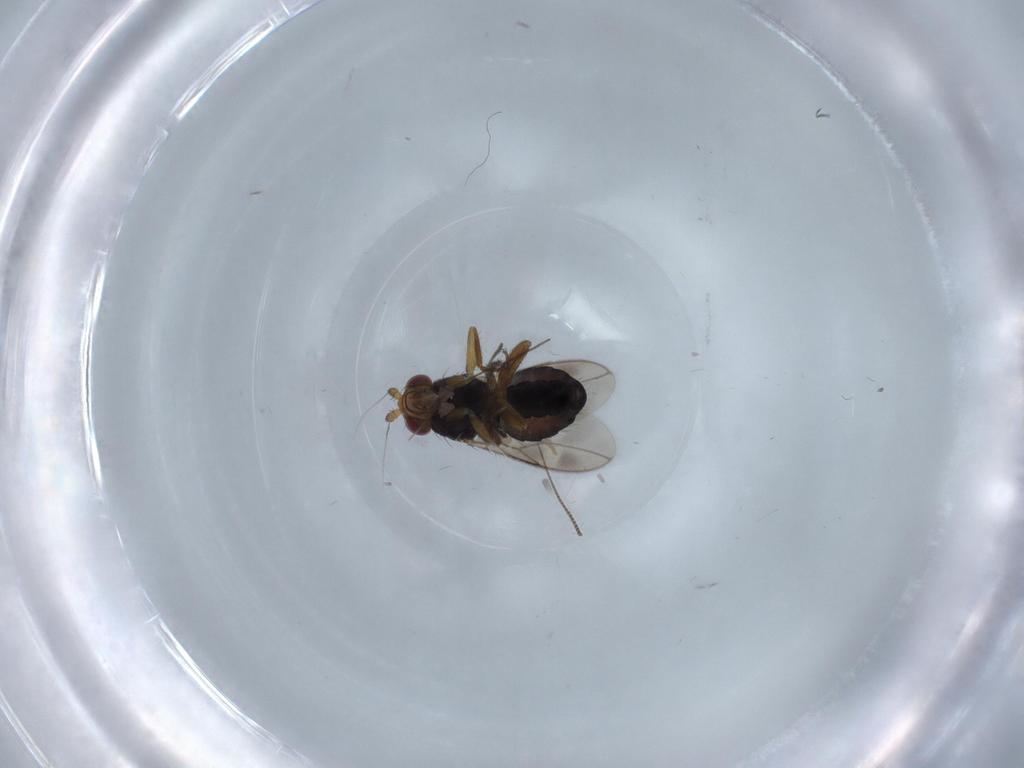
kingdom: Animalia
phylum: Arthropoda
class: Insecta
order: Diptera
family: Sphaeroceridae
